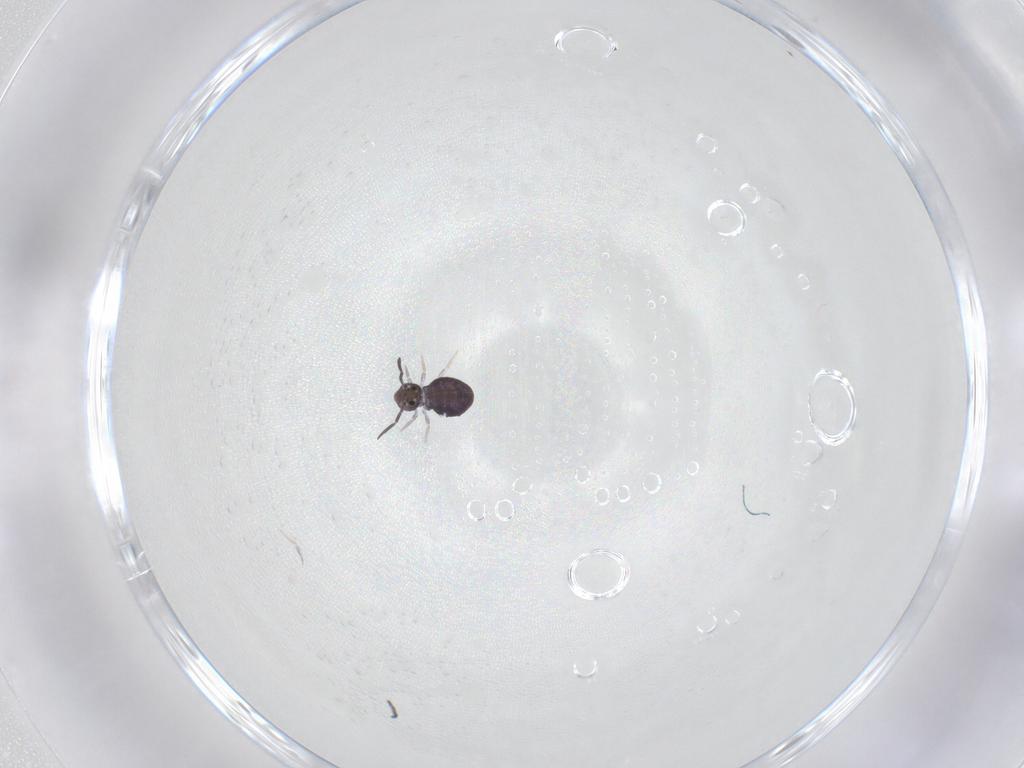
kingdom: Animalia
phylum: Arthropoda
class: Collembola
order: Symphypleona
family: Katiannidae
